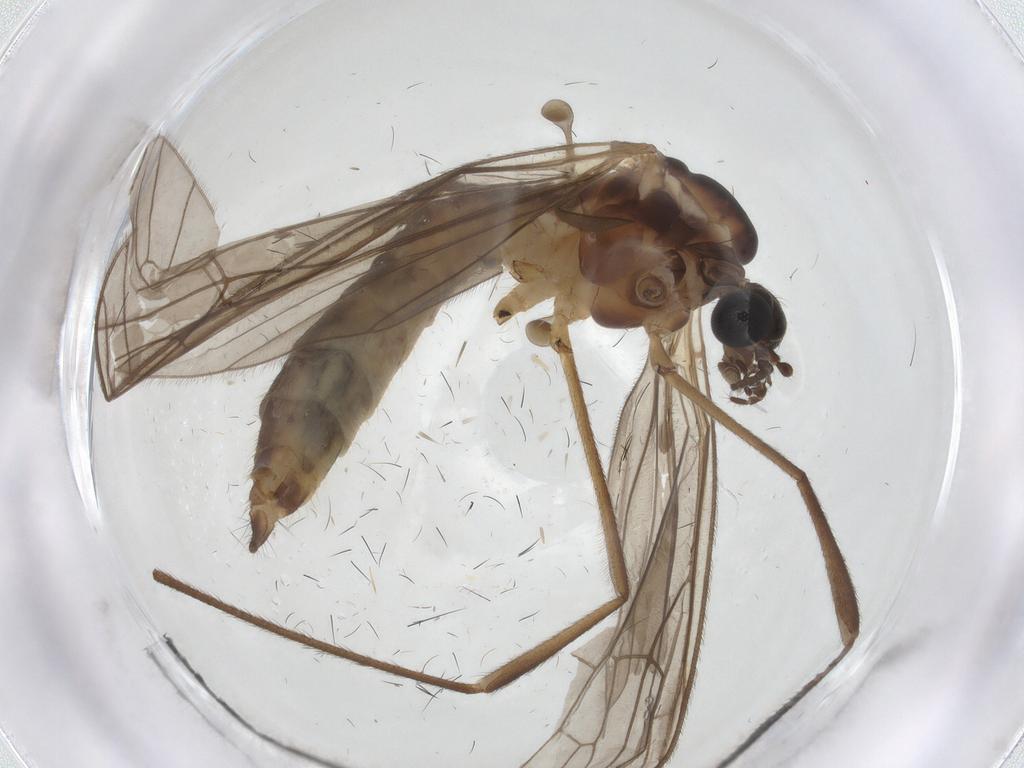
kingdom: Animalia
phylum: Arthropoda
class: Insecta
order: Diptera
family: Limoniidae
